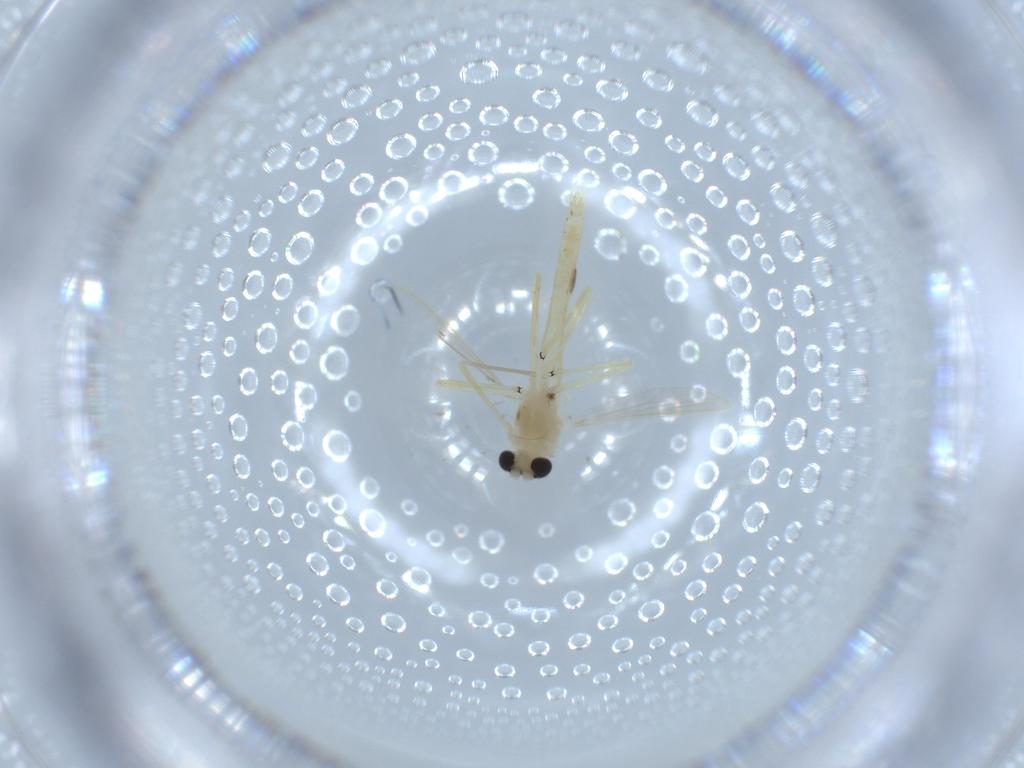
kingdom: Animalia
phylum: Arthropoda
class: Insecta
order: Diptera
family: Chironomidae
